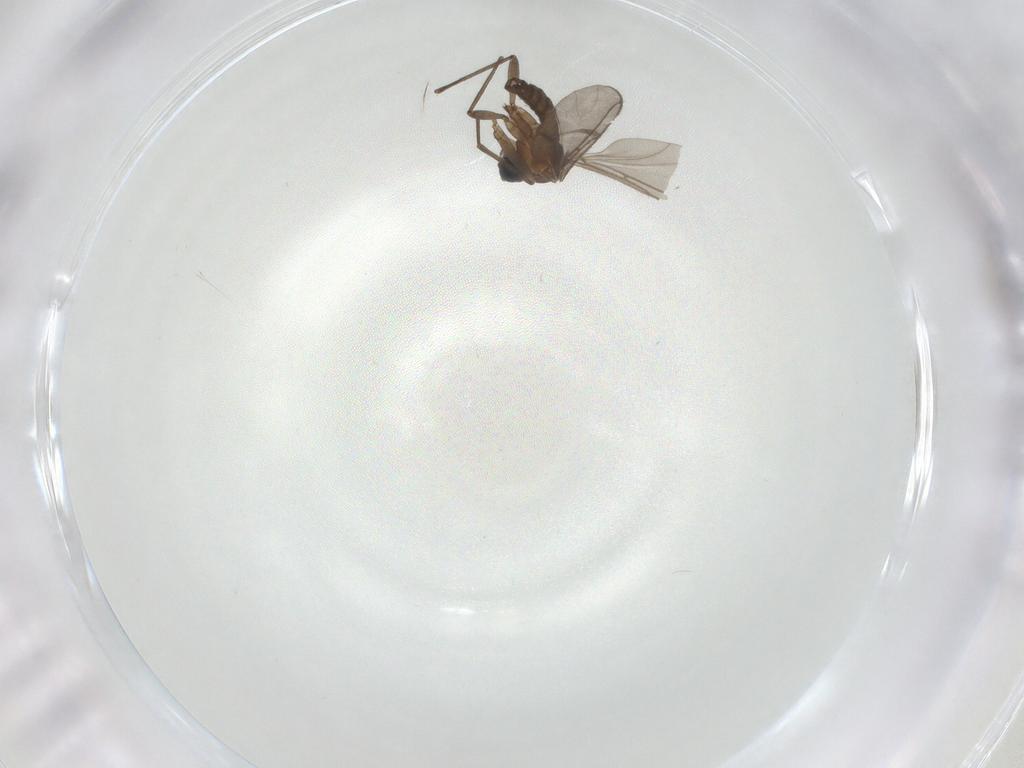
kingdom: Animalia
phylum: Arthropoda
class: Insecta
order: Diptera
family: Sciaridae
